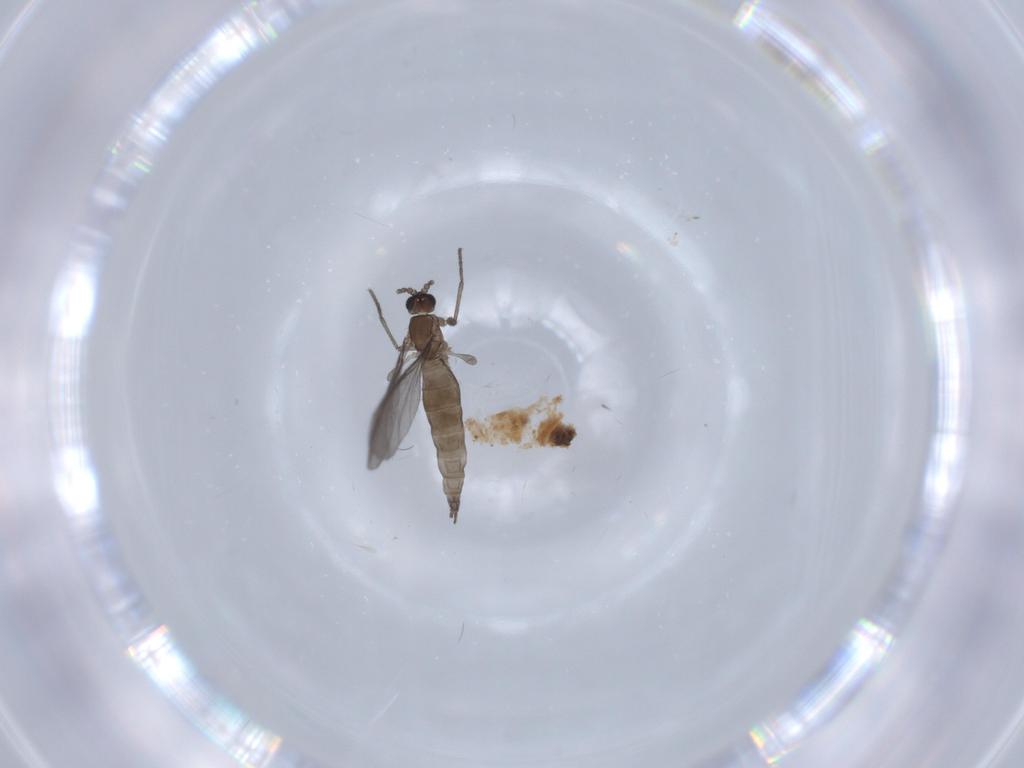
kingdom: Animalia
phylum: Arthropoda
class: Insecta
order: Diptera
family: Sciaridae
